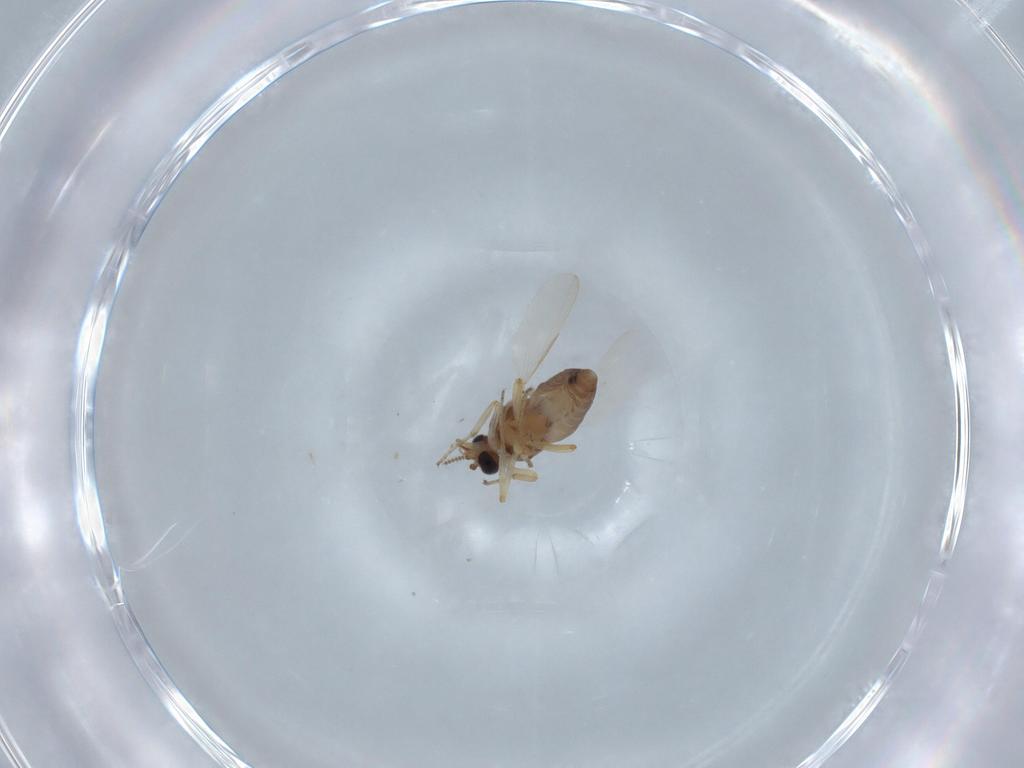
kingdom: Animalia
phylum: Arthropoda
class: Insecta
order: Diptera
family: Ceratopogonidae
